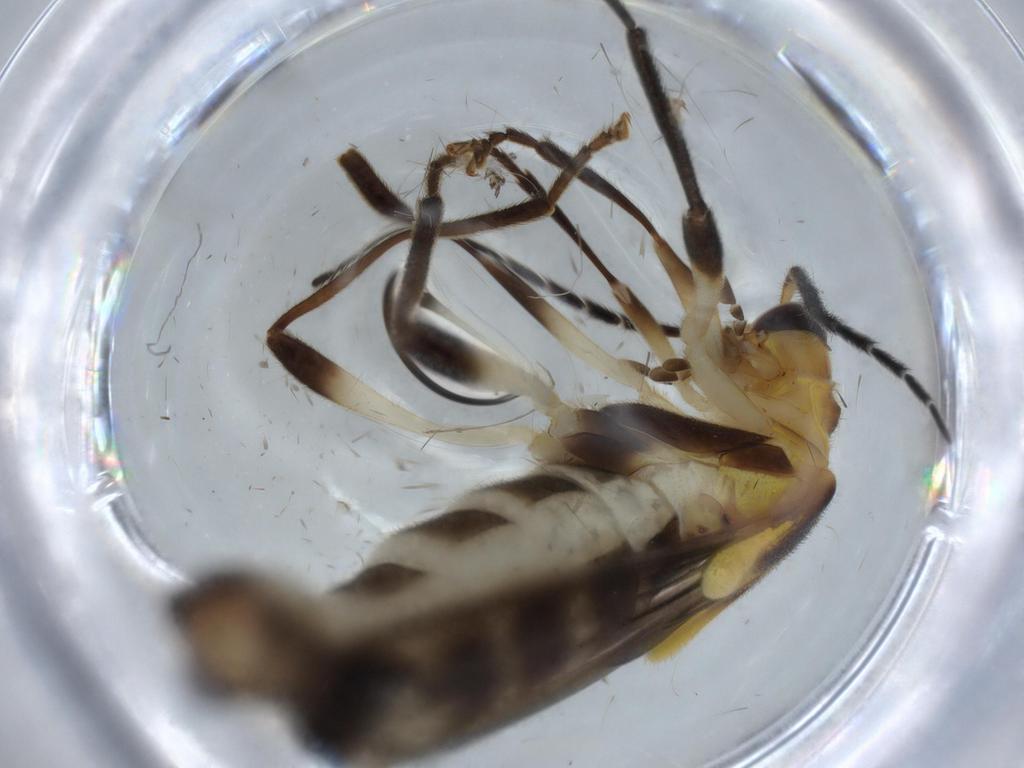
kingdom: Animalia
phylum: Arthropoda
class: Insecta
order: Coleoptera
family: Cantharidae
